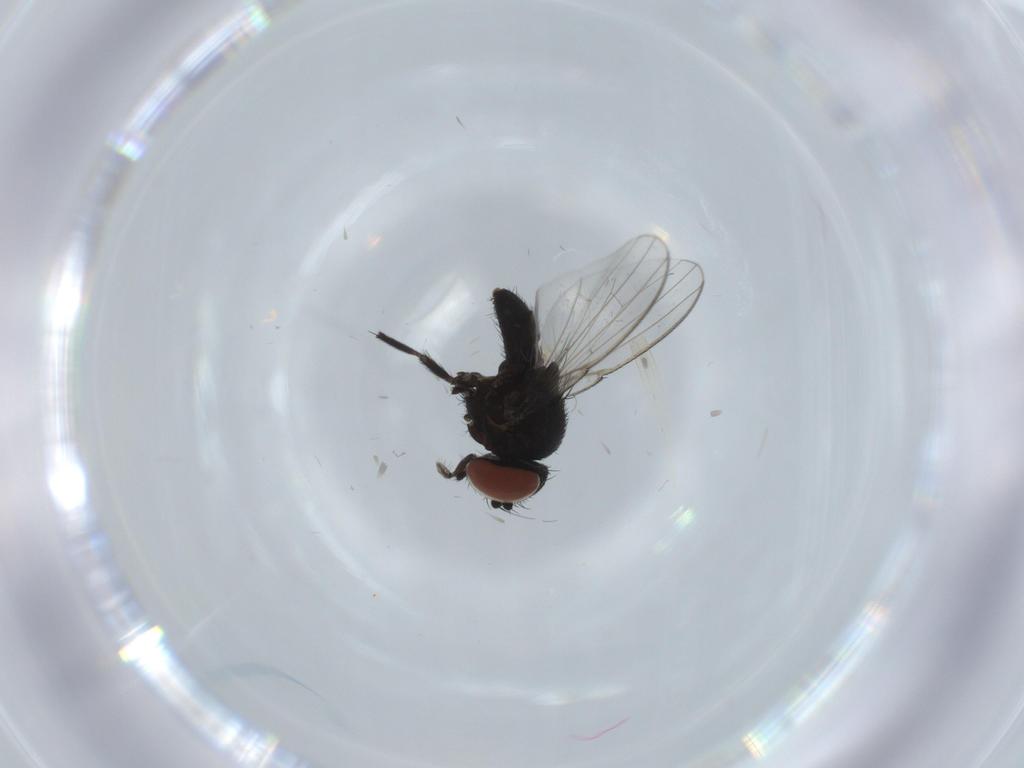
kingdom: Animalia
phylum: Arthropoda
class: Insecta
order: Diptera
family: Milichiidae
